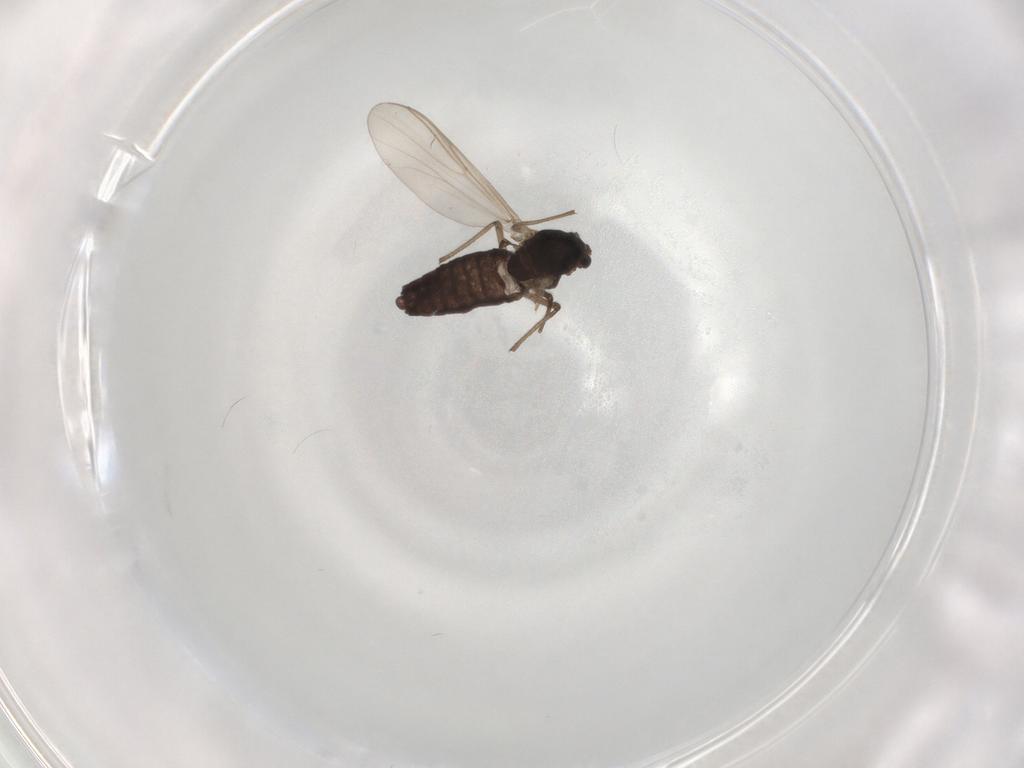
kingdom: Animalia
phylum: Arthropoda
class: Insecta
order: Diptera
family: Chironomidae
